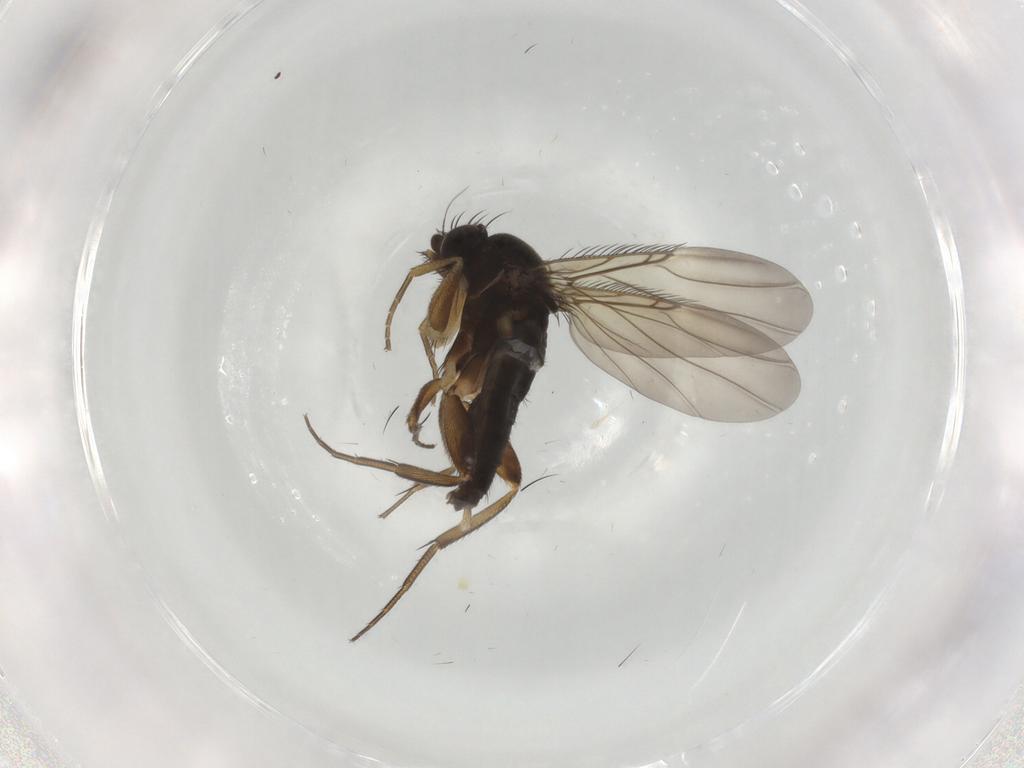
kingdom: Animalia
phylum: Arthropoda
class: Insecta
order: Diptera
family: Phoridae
